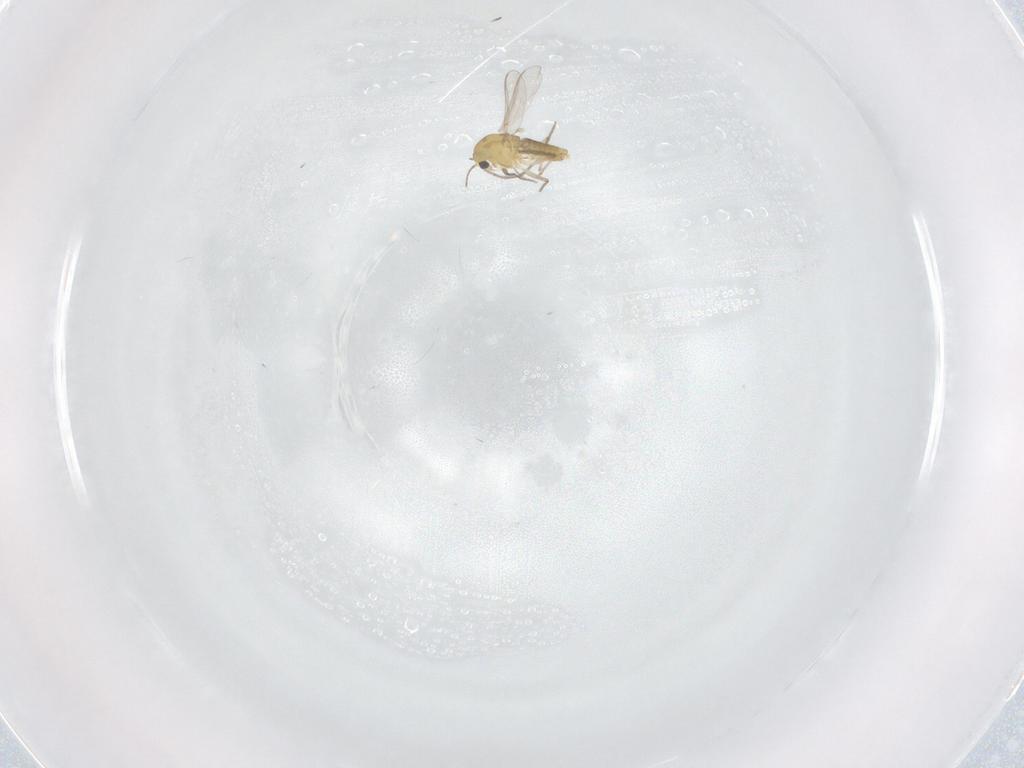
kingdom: Animalia
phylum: Arthropoda
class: Insecta
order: Diptera
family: Chironomidae
